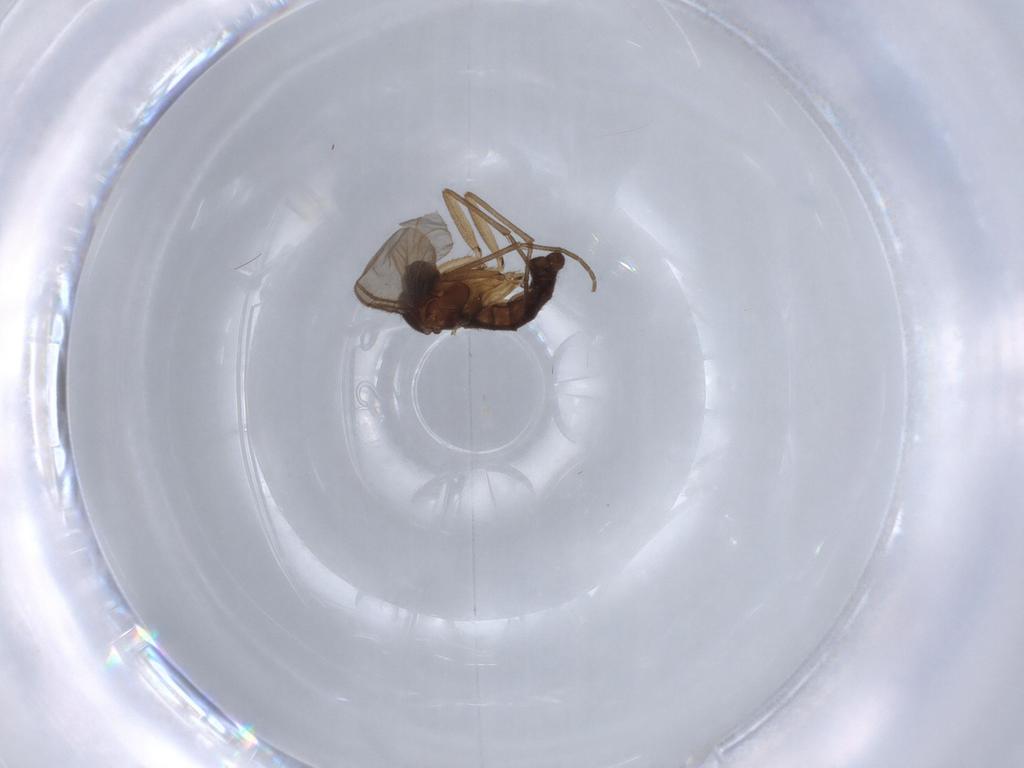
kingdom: Animalia
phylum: Arthropoda
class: Insecta
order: Diptera
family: Sciaridae
